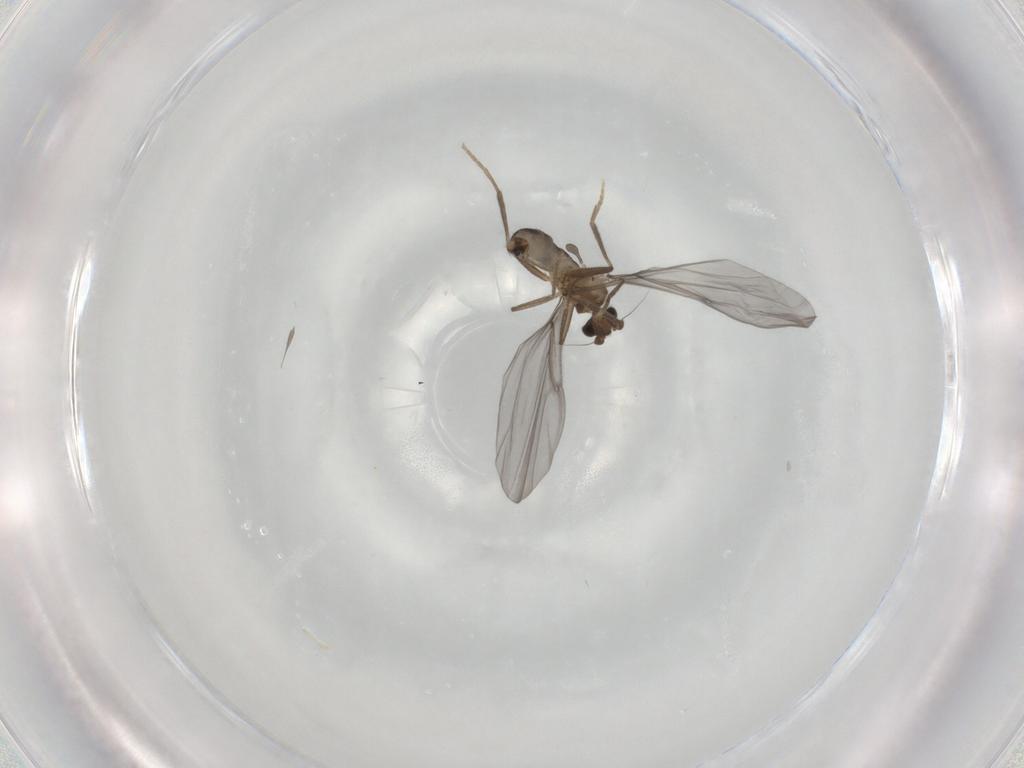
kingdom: Animalia
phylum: Arthropoda
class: Insecta
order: Diptera
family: Phoridae
